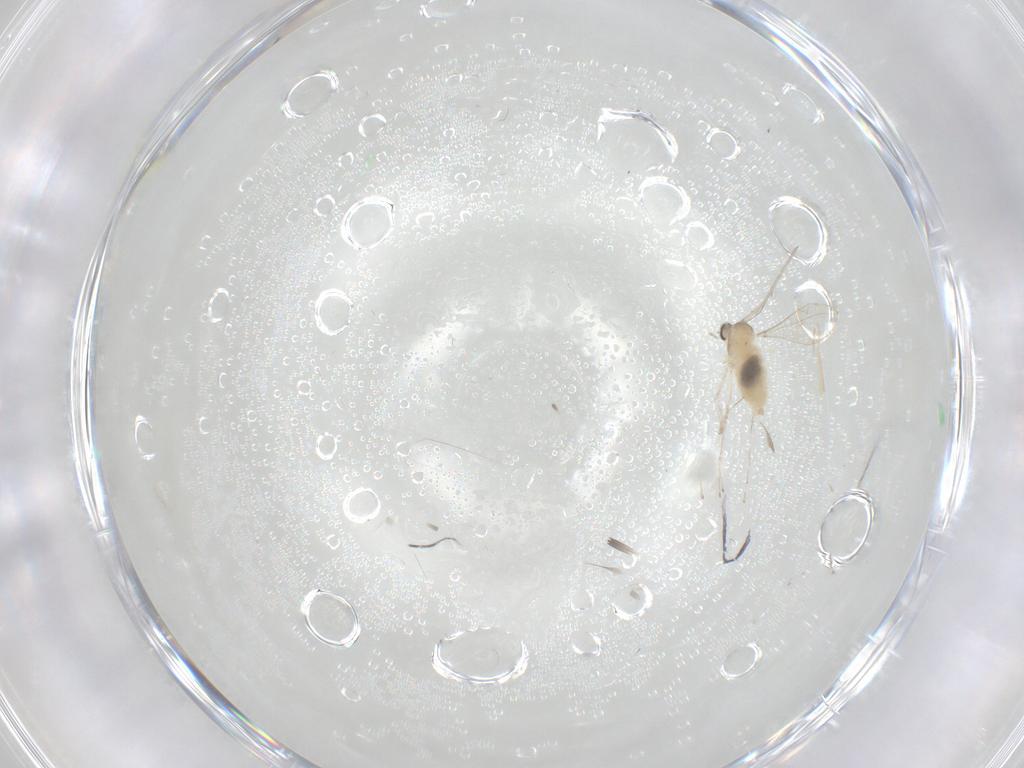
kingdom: Animalia
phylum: Arthropoda
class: Insecta
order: Diptera
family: Cecidomyiidae
